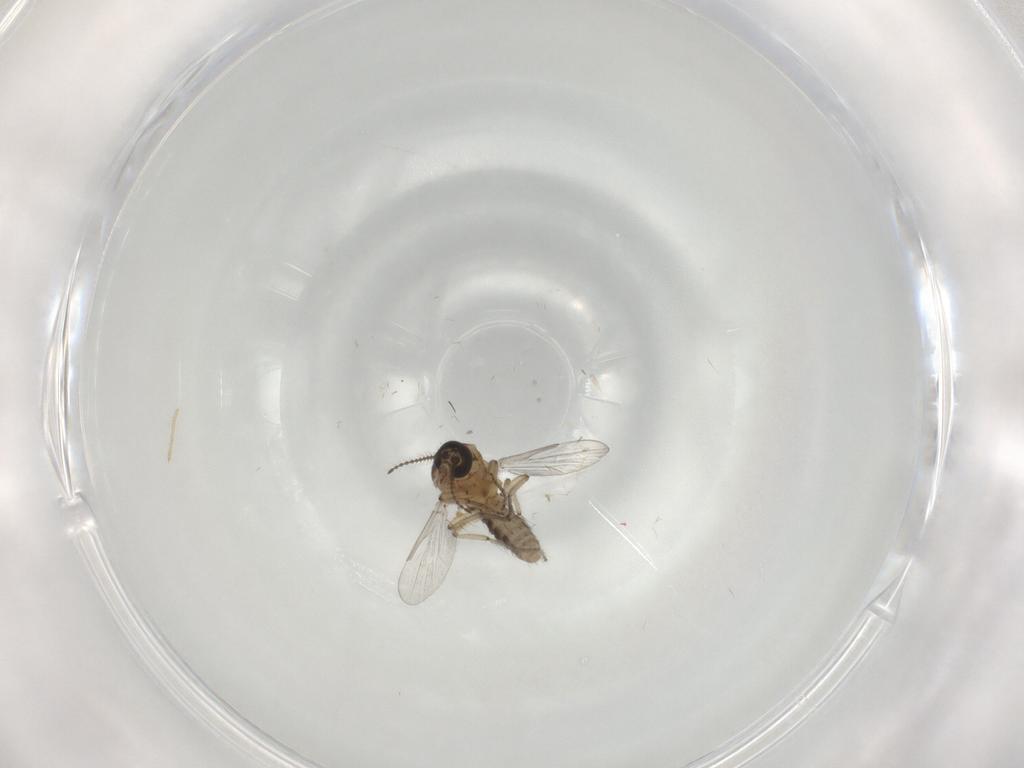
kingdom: Animalia
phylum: Arthropoda
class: Insecta
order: Diptera
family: Ceratopogonidae
